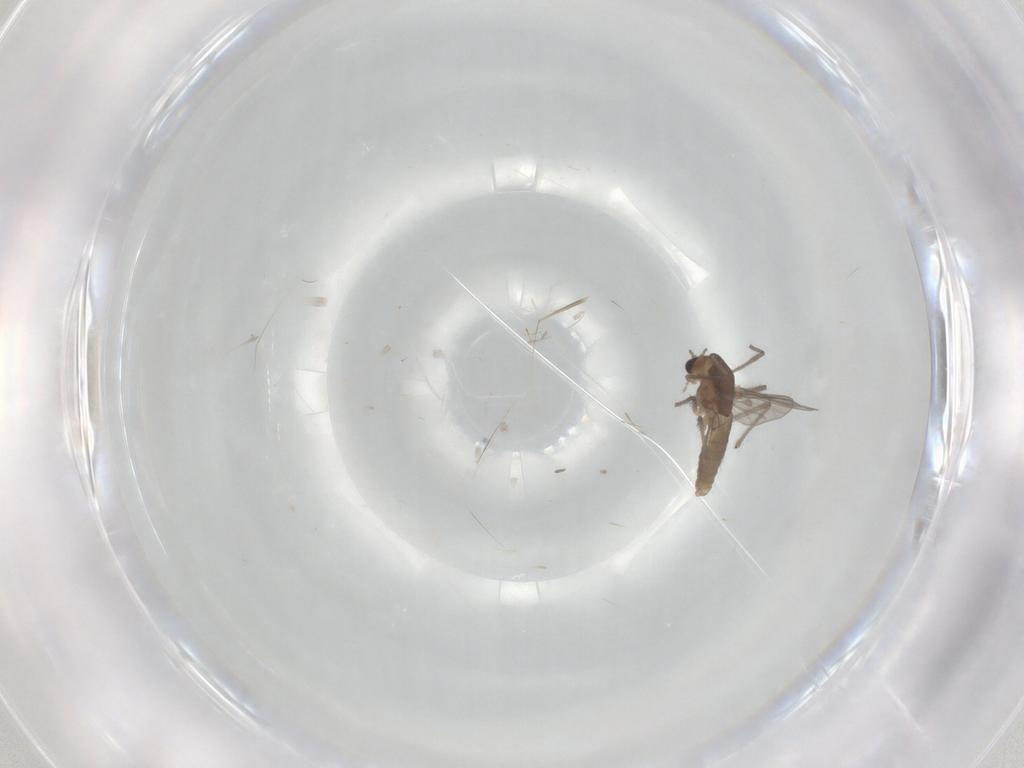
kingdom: Animalia
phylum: Arthropoda
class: Insecta
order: Diptera
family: Chironomidae
